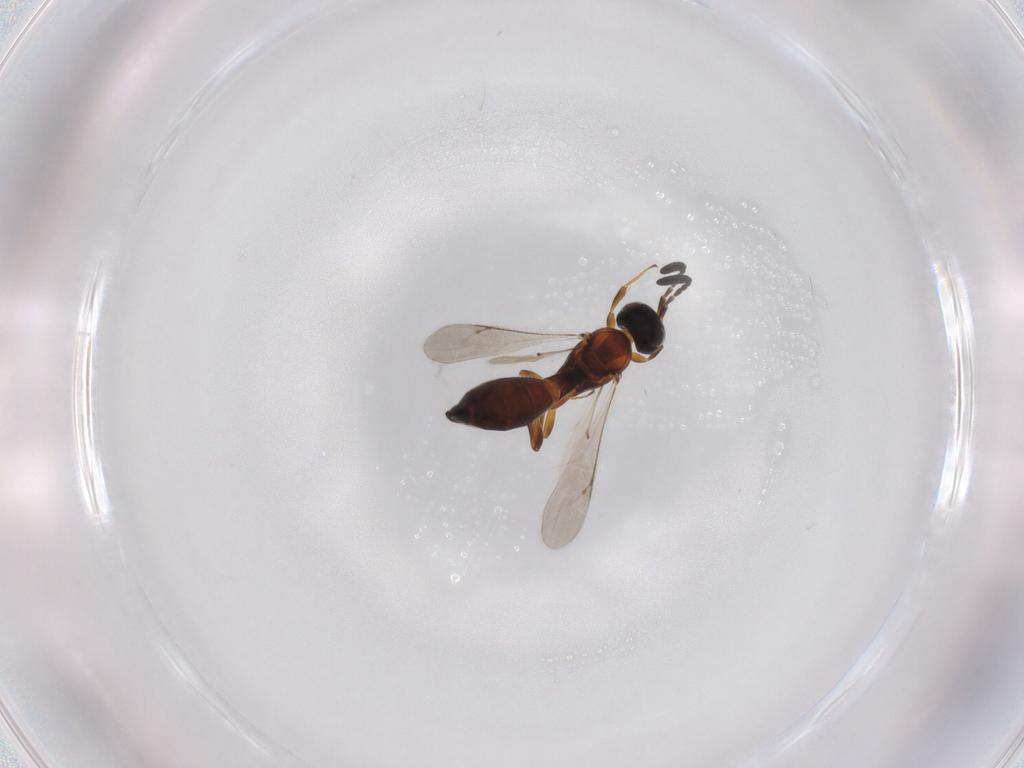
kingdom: Animalia
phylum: Arthropoda
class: Insecta
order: Hymenoptera
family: Scelionidae
